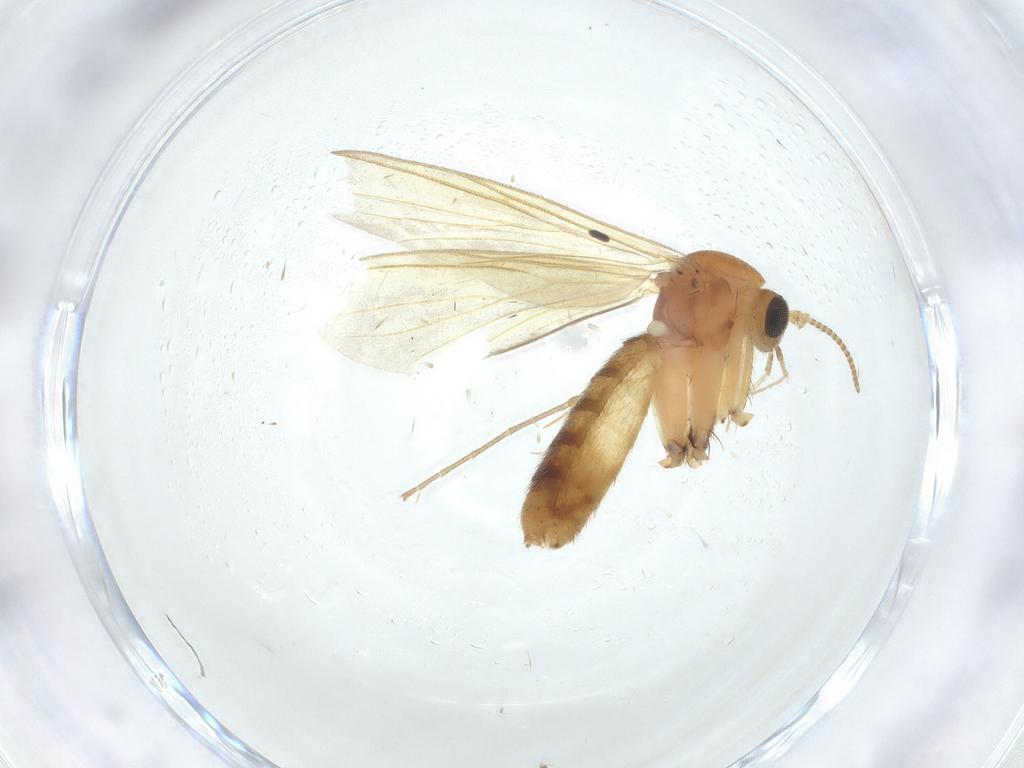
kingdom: Animalia
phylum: Arthropoda
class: Insecta
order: Diptera
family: Mycetophilidae
